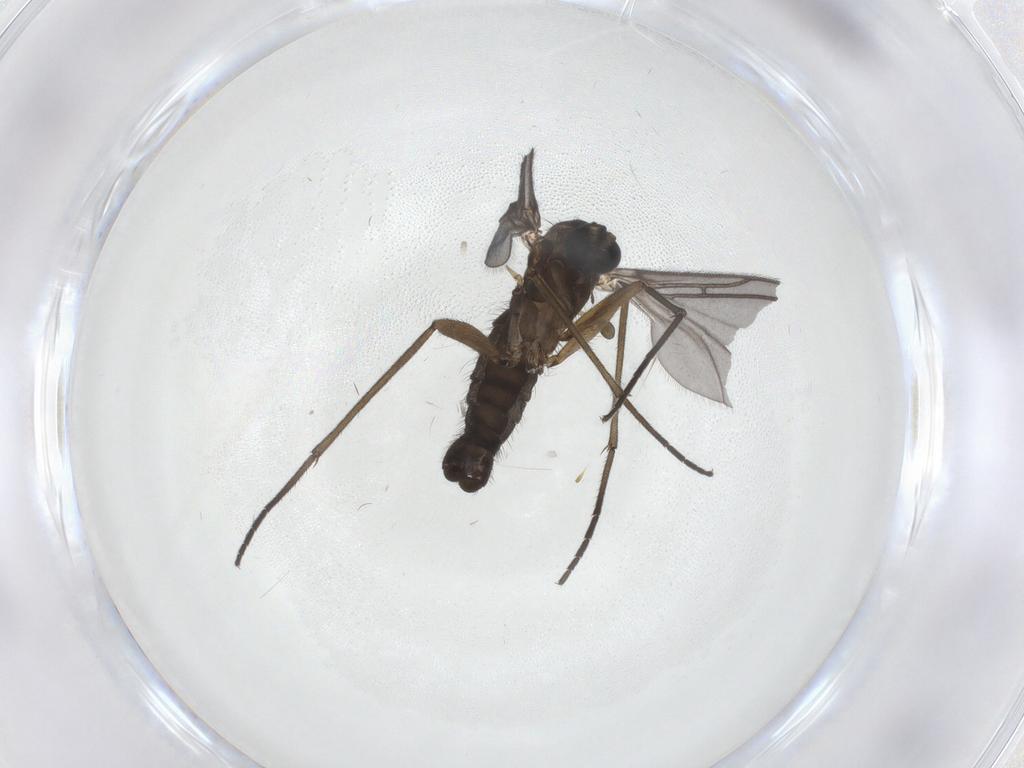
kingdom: Animalia
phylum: Arthropoda
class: Insecta
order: Diptera
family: Sciaridae
